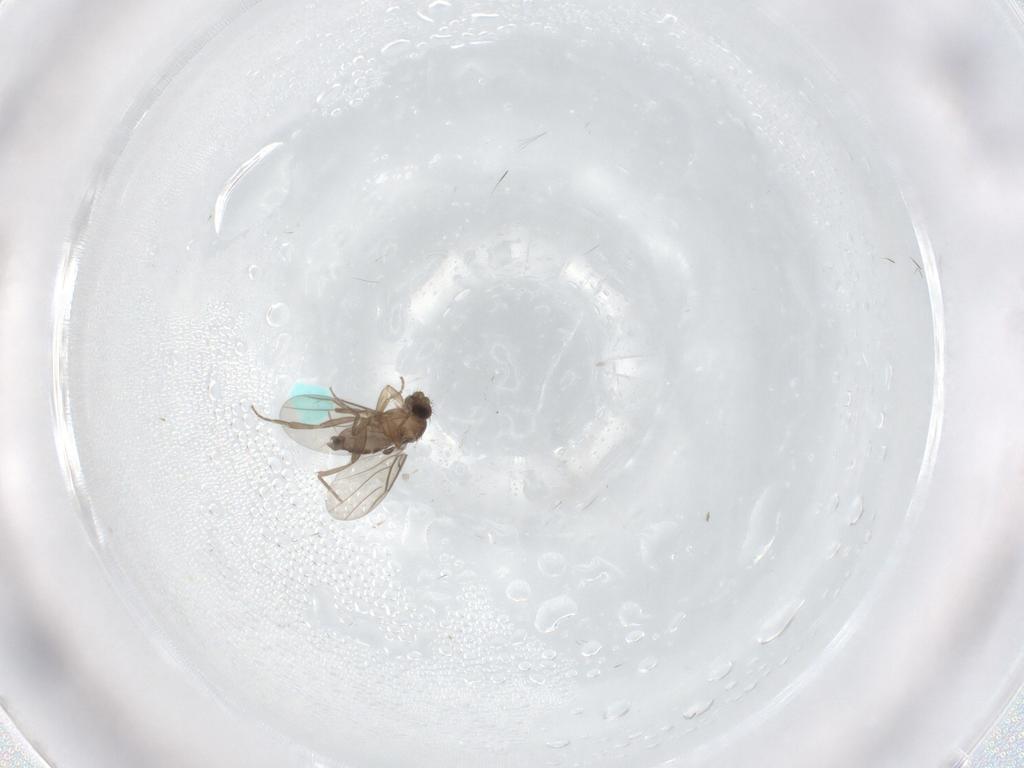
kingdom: Animalia
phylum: Arthropoda
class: Insecta
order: Diptera
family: Phoridae
